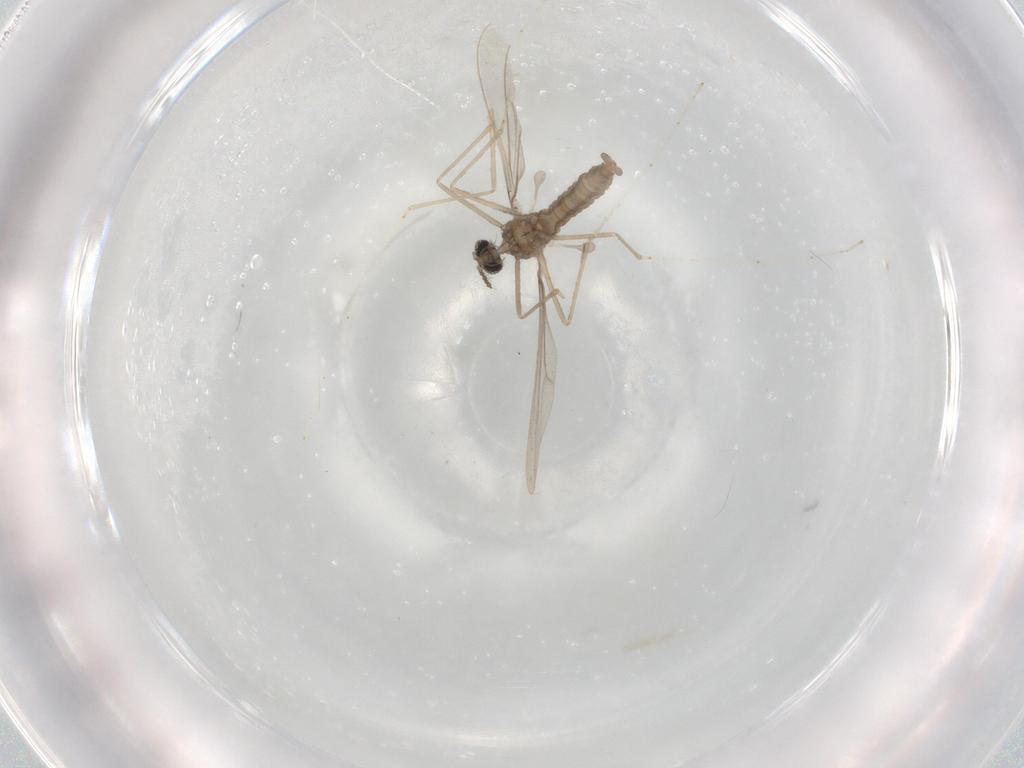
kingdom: Animalia
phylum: Arthropoda
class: Insecta
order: Diptera
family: Cecidomyiidae
